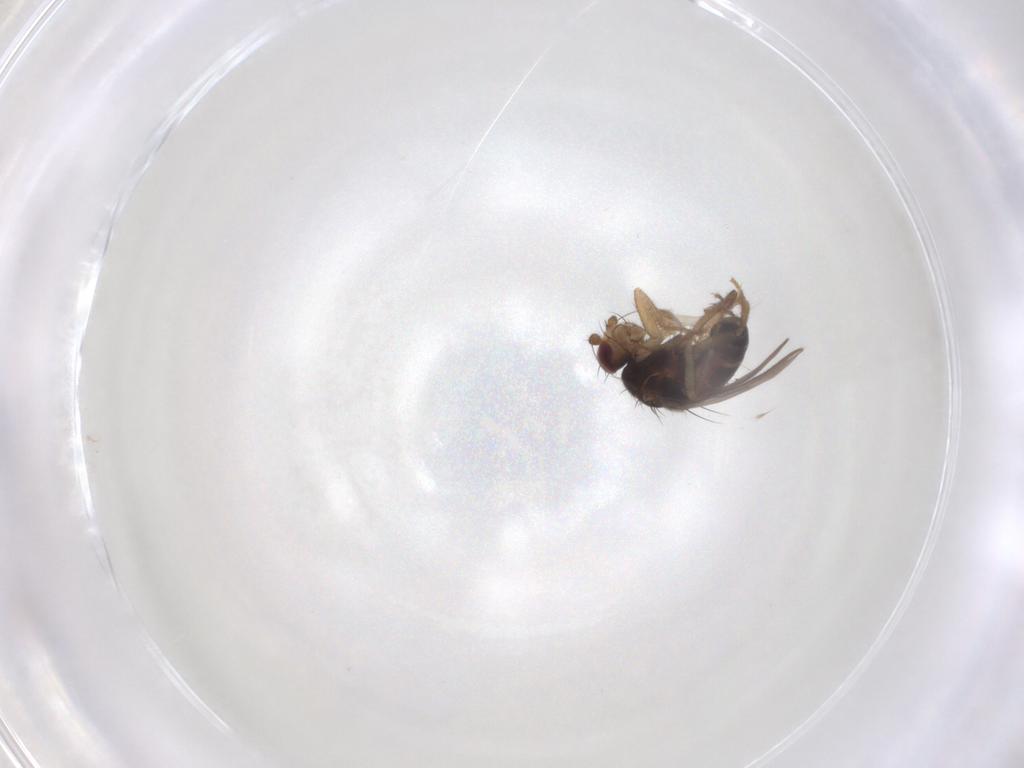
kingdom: Animalia
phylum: Arthropoda
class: Insecta
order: Diptera
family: Sphaeroceridae
